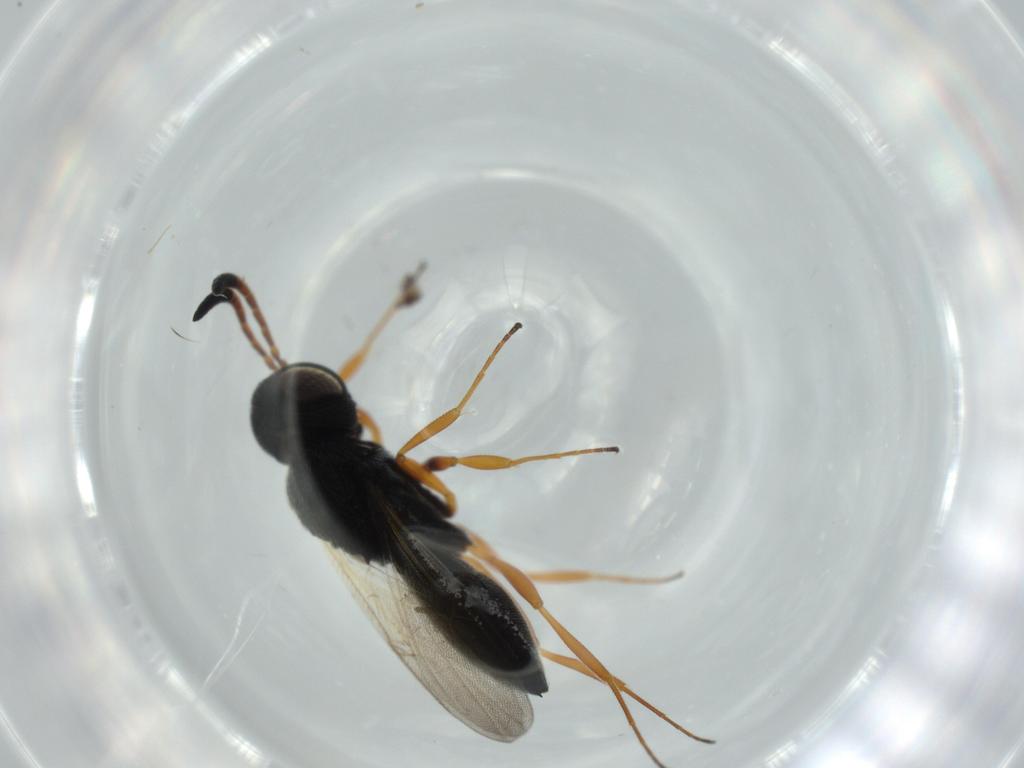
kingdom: Animalia
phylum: Arthropoda
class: Insecta
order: Hymenoptera
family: Scelionidae
